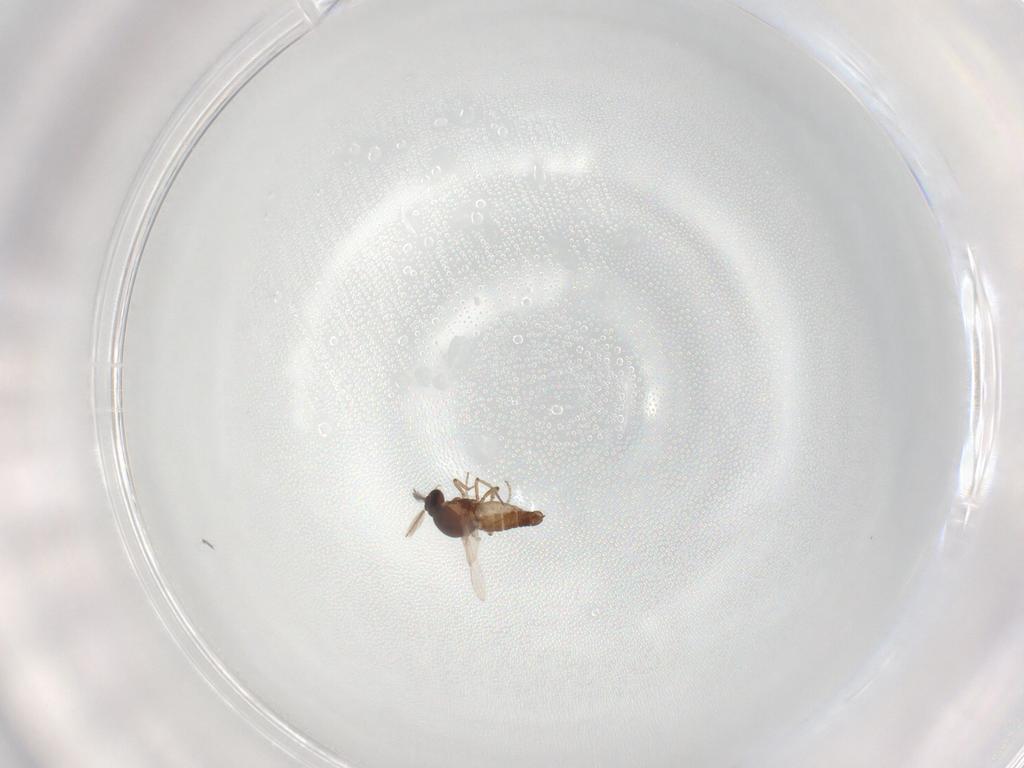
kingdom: Animalia
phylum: Arthropoda
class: Insecta
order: Diptera
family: Ceratopogonidae
